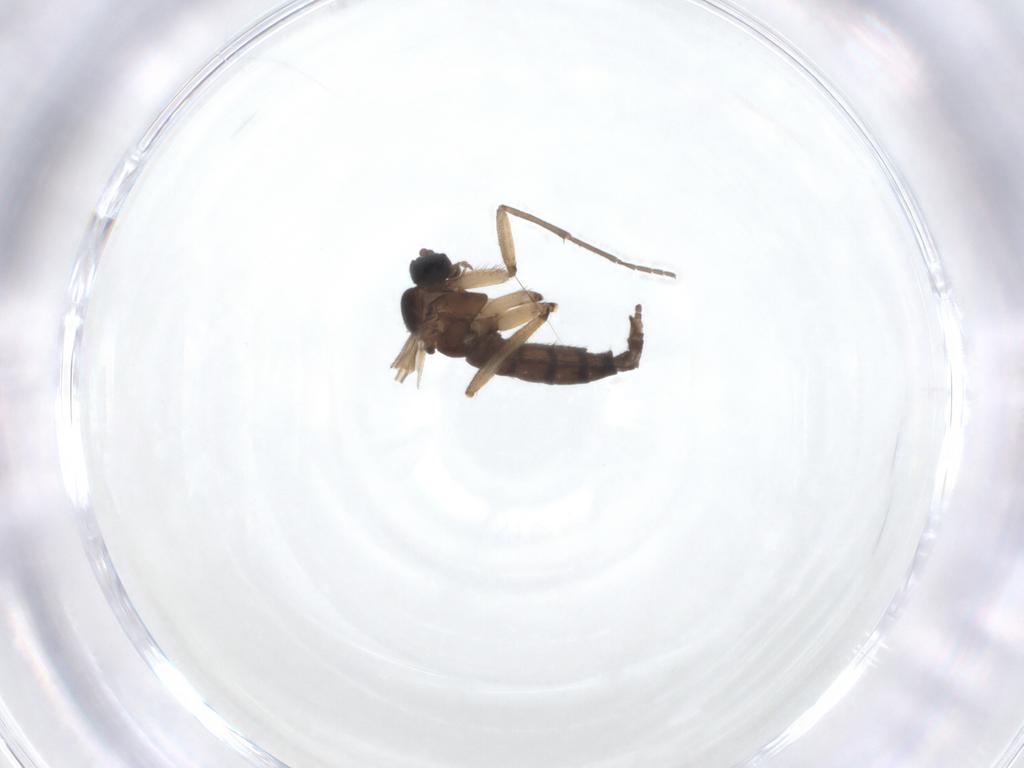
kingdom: Animalia
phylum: Arthropoda
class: Insecta
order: Diptera
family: Sciaridae
